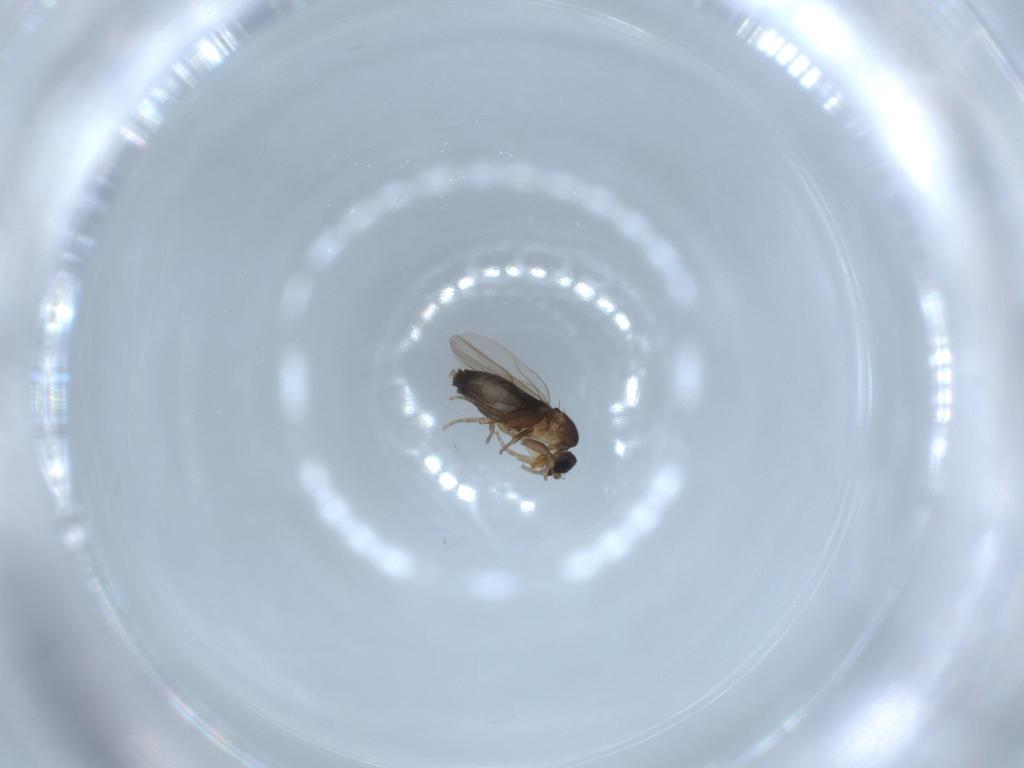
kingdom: Animalia
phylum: Arthropoda
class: Insecta
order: Diptera
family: Phoridae
